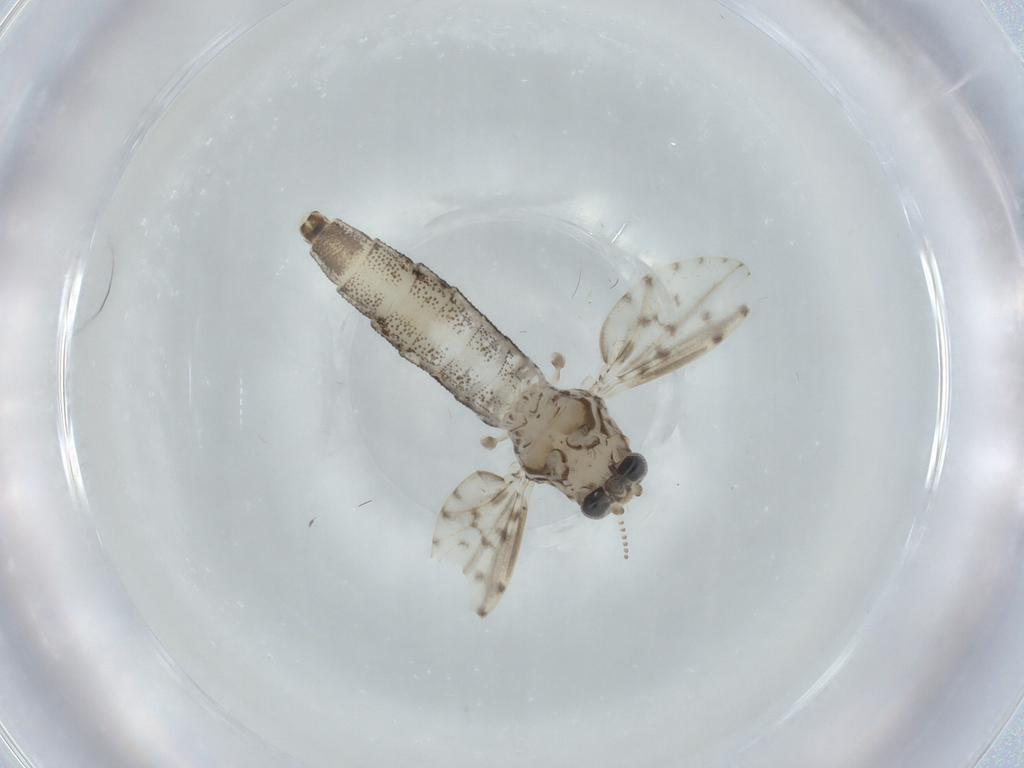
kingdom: Animalia
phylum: Arthropoda
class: Insecta
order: Diptera
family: Cecidomyiidae
